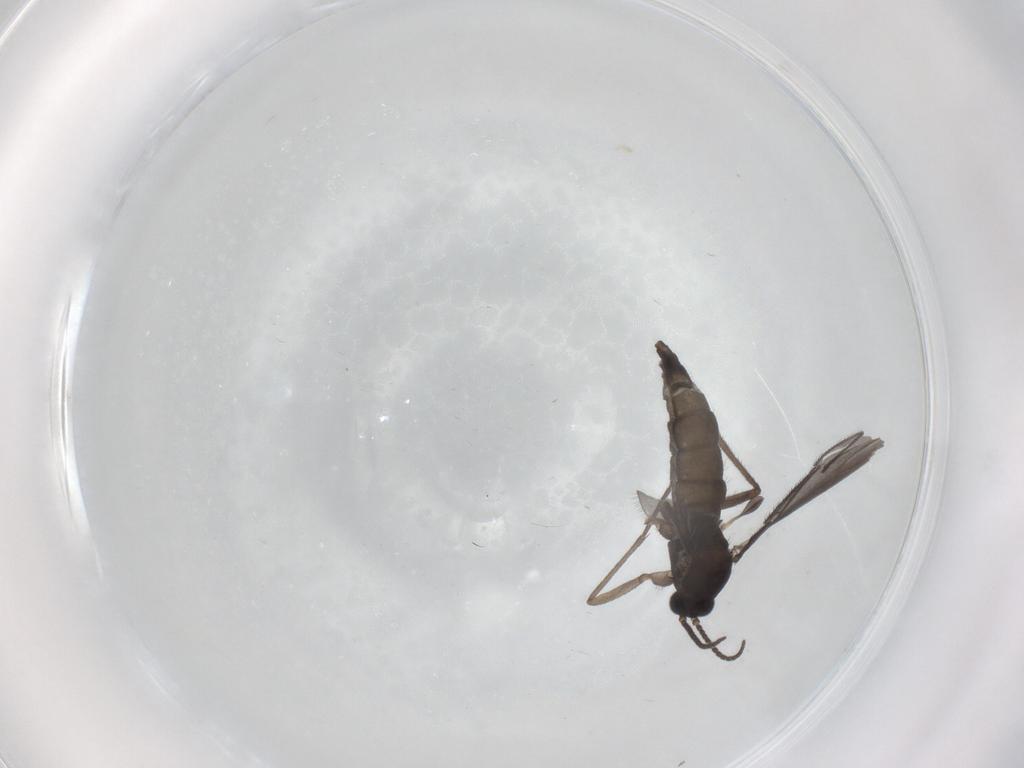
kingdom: Animalia
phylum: Arthropoda
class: Insecta
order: Diptera
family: Sciaridae
